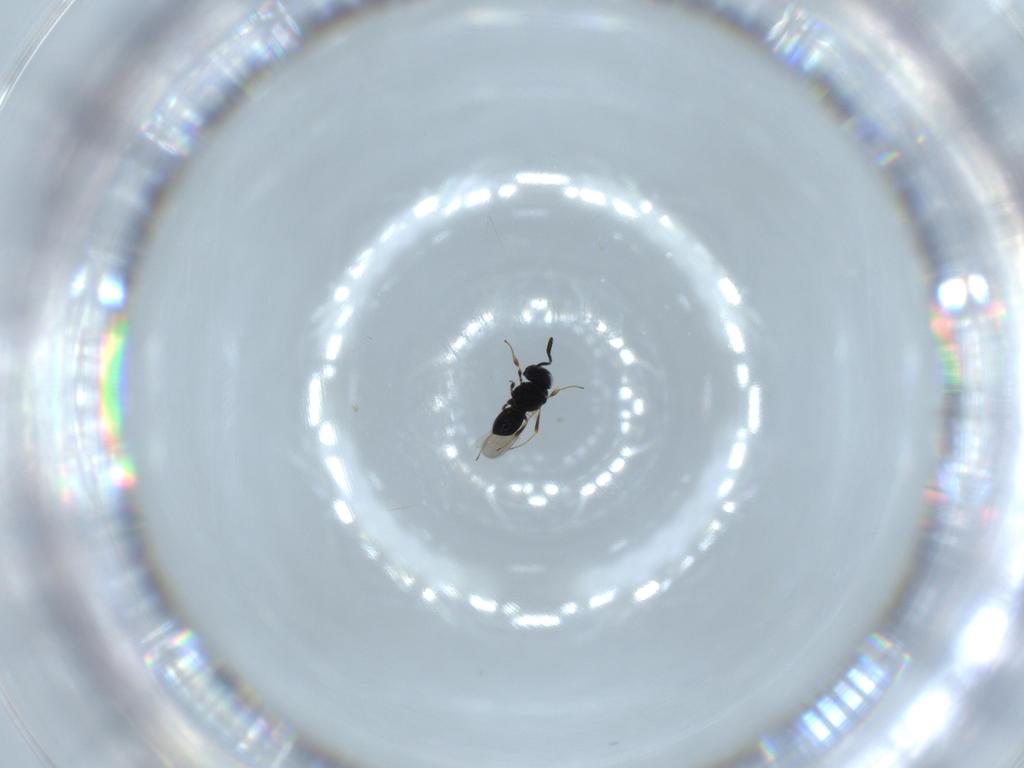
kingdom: Animalia
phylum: Arthropoda
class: Insecta
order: Hymenoptera
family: Scelionidae
